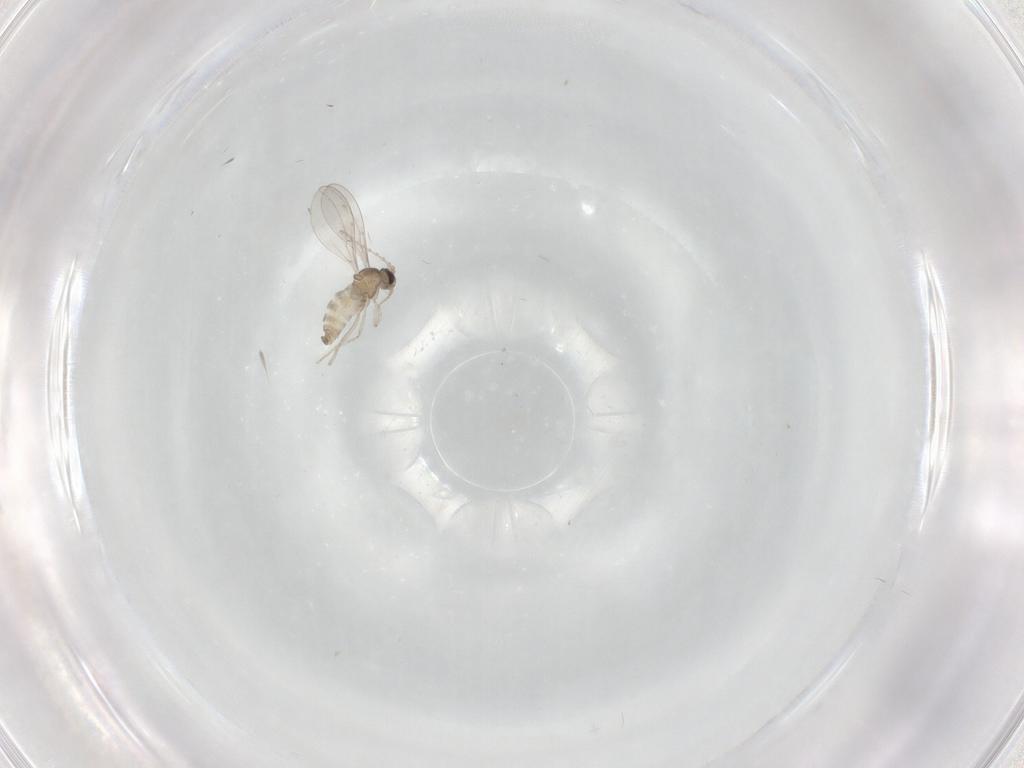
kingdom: Animalia
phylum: Arthropoda
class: Insecta
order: Diptera
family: Cecidomyiidae
